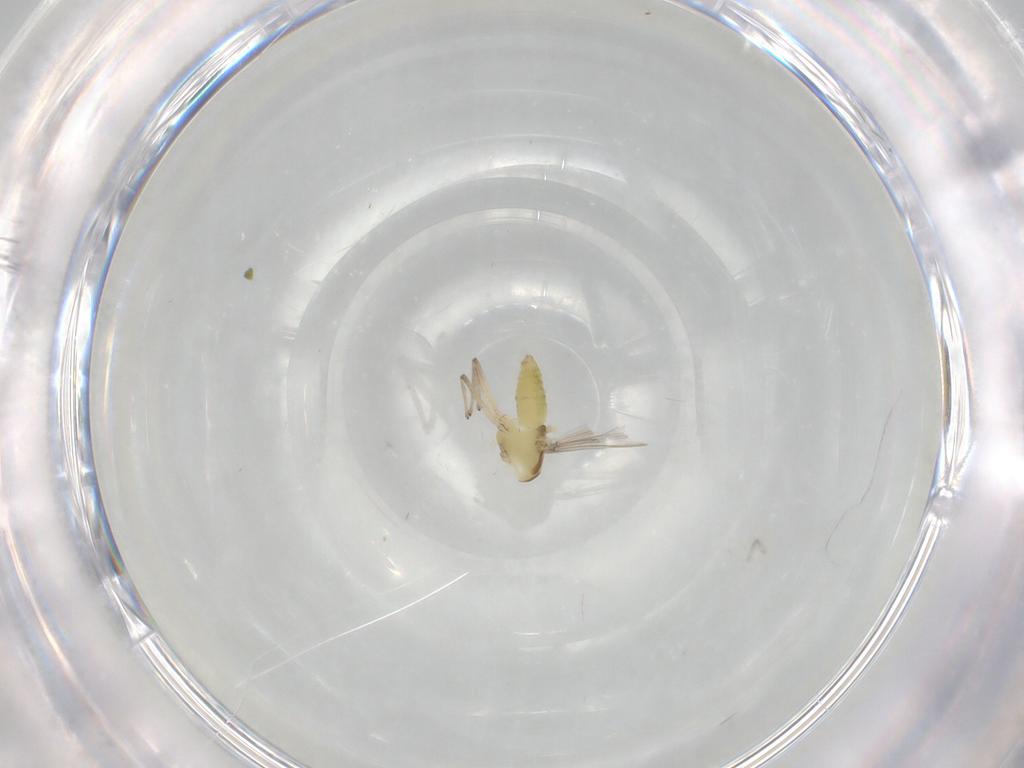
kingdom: Animalia
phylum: Arthropoda
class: Insecta
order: Diptera
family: Chironomidae
